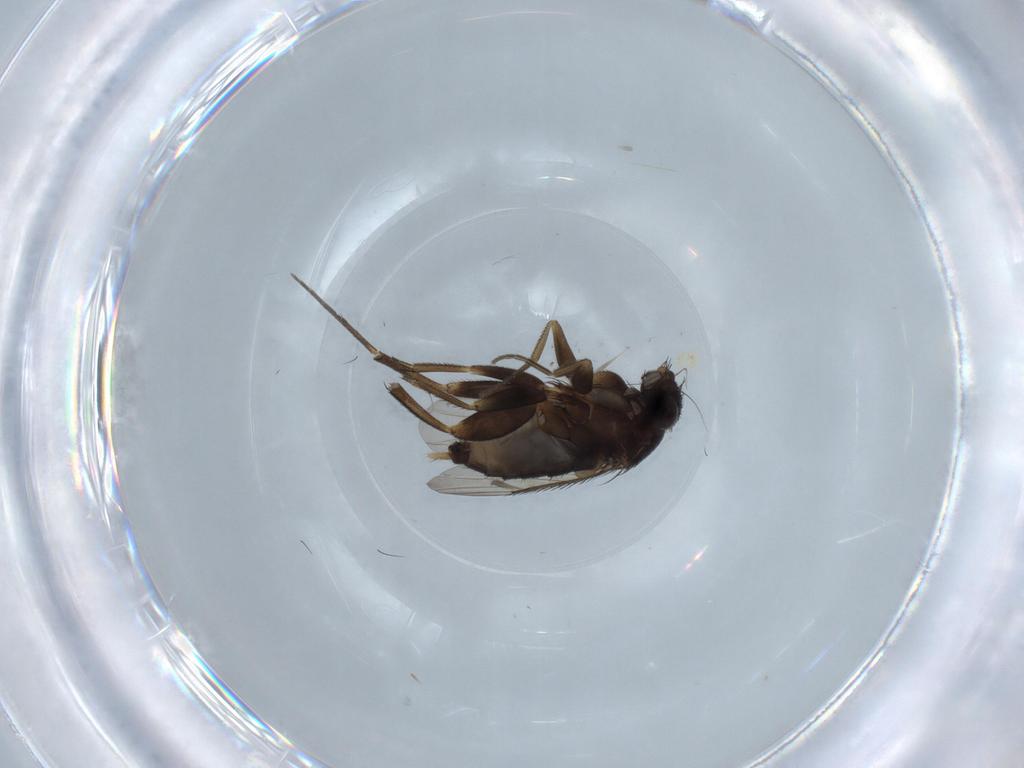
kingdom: Animalia
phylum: Arthropoda
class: Insecta
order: Diptera
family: Phoridae
